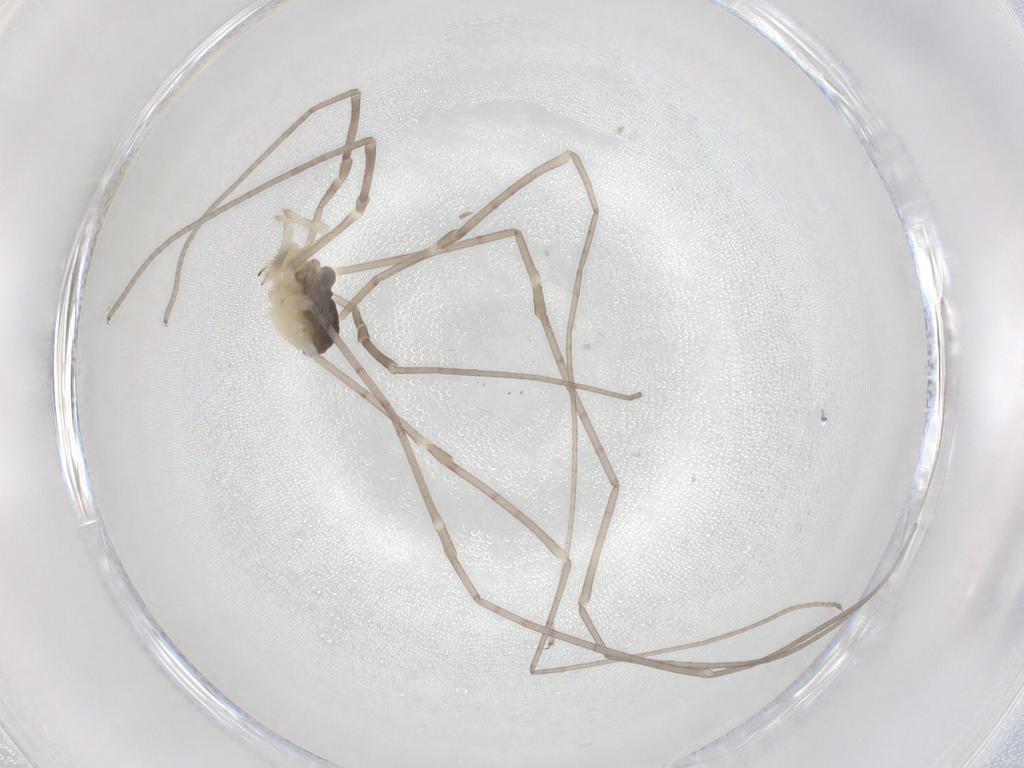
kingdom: Animalia
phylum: Arthropoda
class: Arachnida
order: Opiliones
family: Sclerosomatidae
